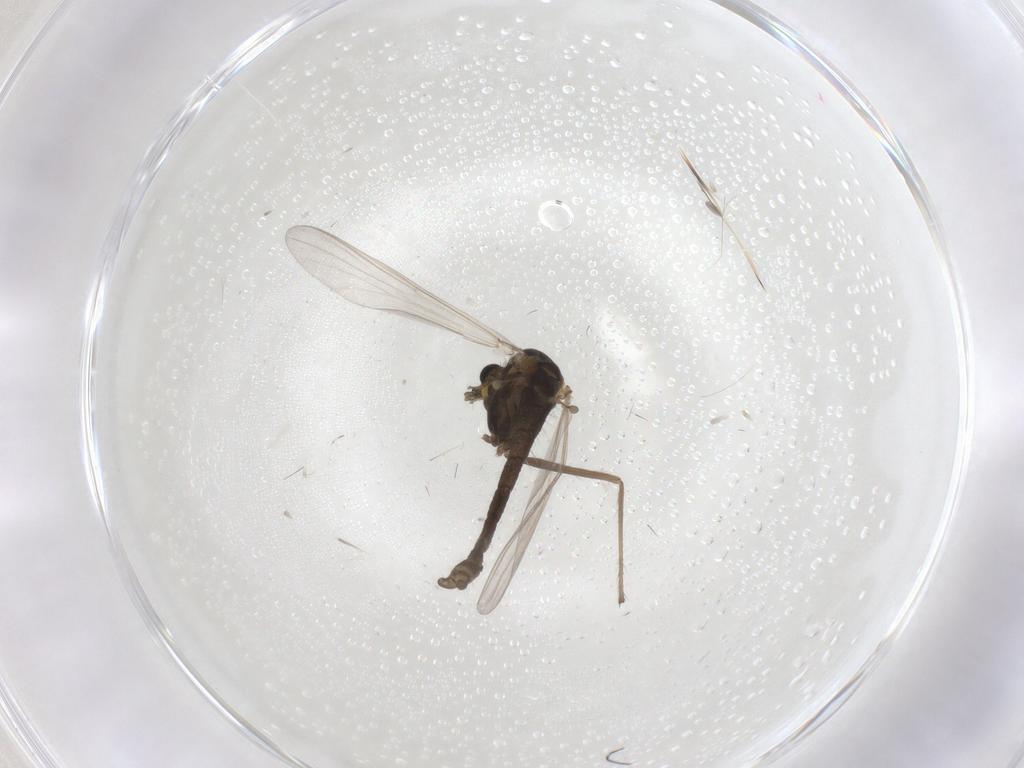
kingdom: Animalia
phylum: Arthropoda
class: Insecta
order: Diptera
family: Chironomidae
